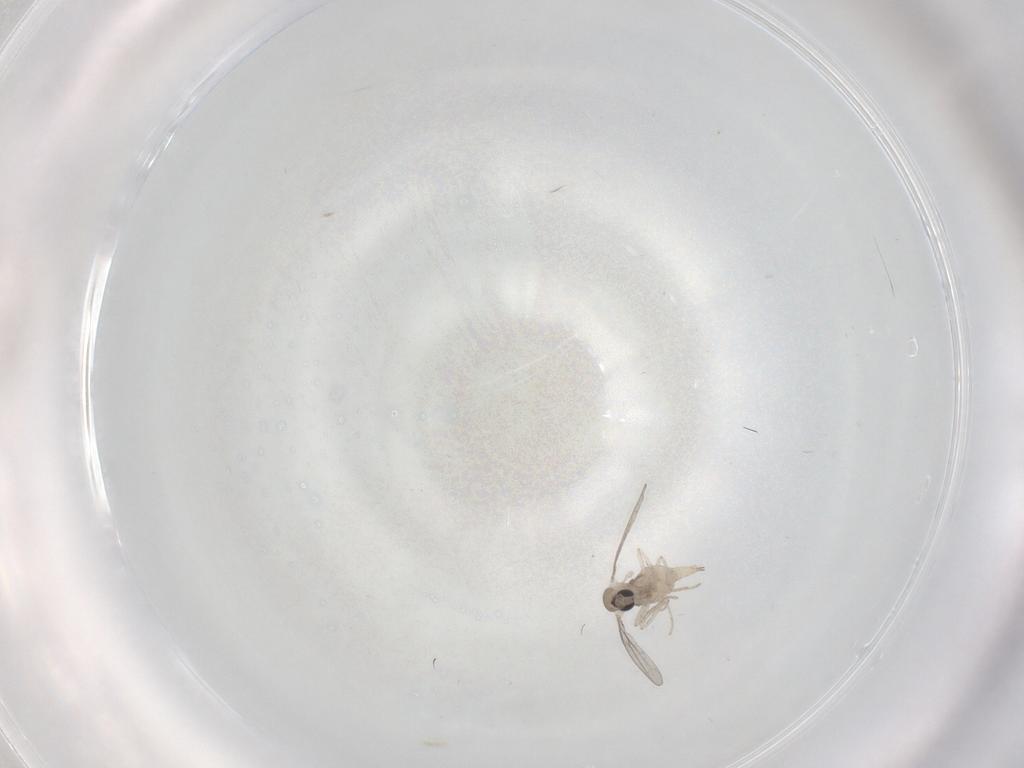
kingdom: Animalia
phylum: Arthropoda
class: Insecta
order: Diptera
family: Cecidomyiidae
